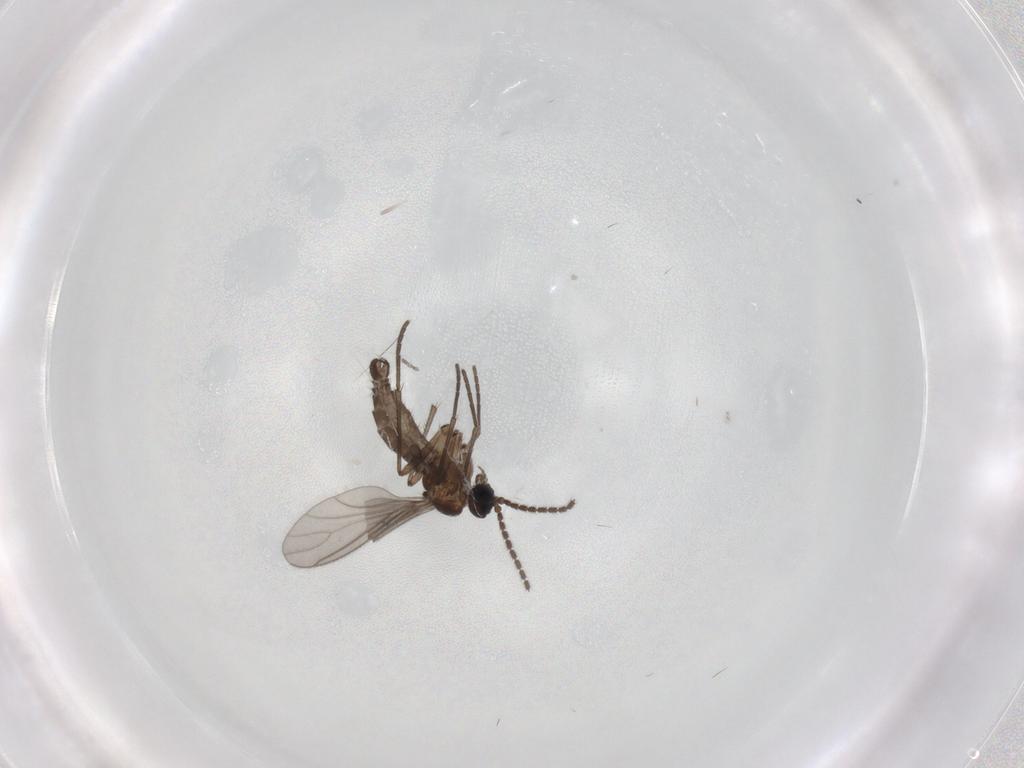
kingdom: Animalia
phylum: Arthropoda
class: Insecta
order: Diptera
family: Sciaridae
